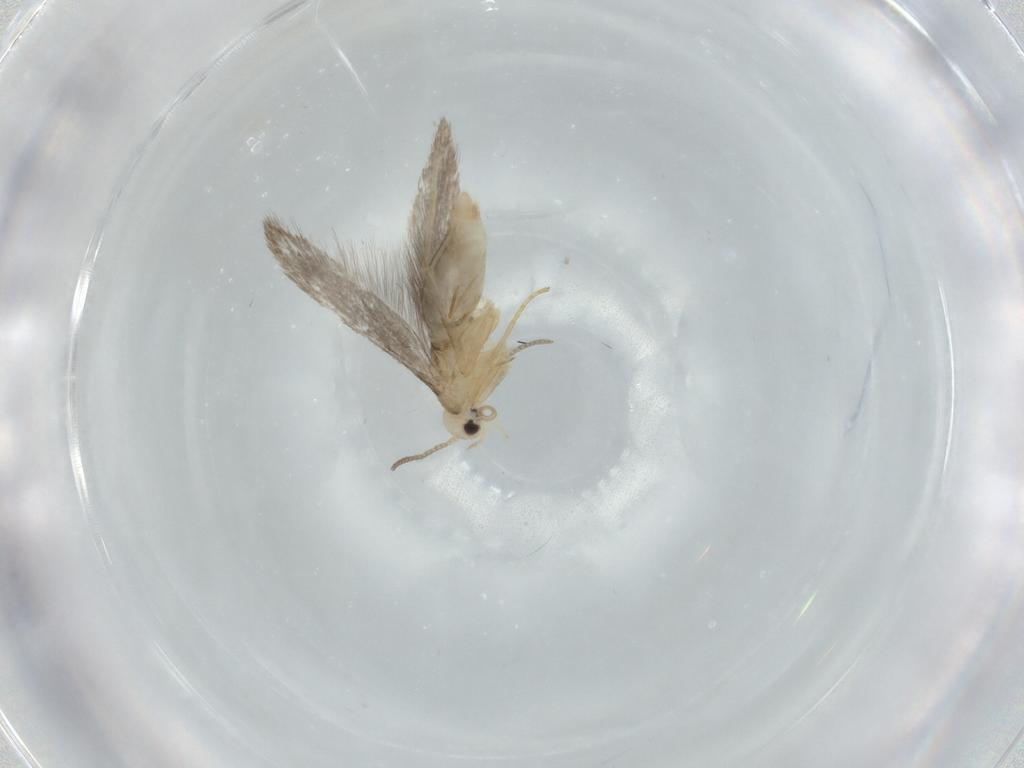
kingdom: Animalia
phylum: Arthropoda
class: Insecta
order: Lepidoptera
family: Schreckensteiniidae
